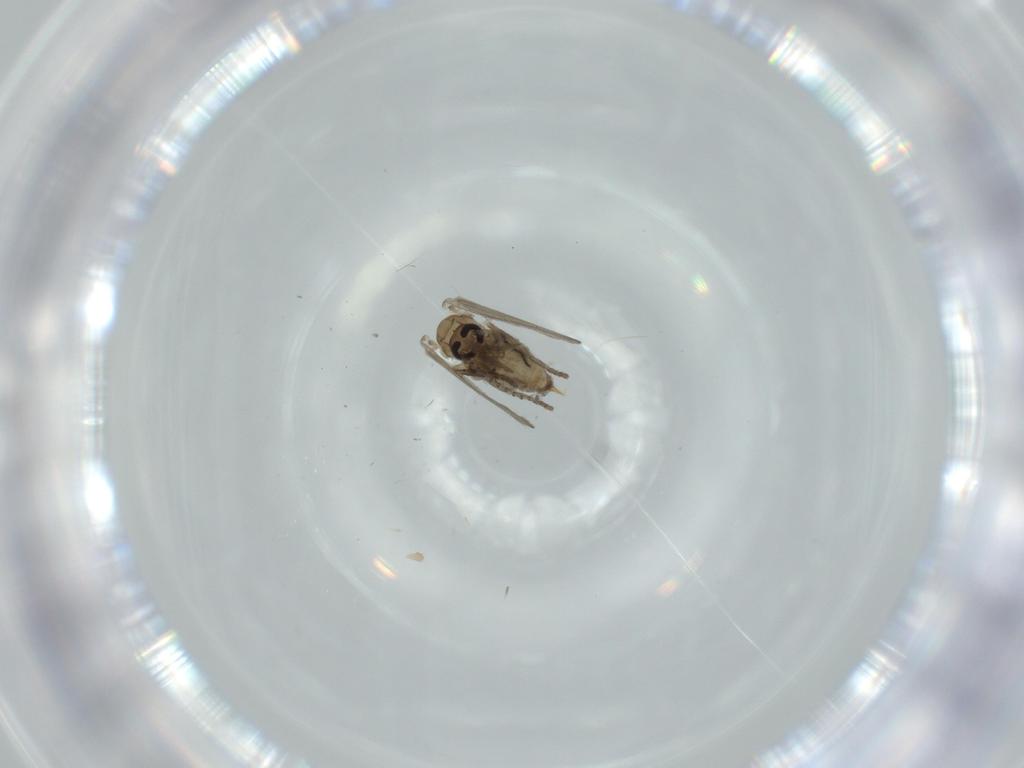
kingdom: Animalia
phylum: Arthropoda
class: Insecta
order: Diptera
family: Psychodidae
